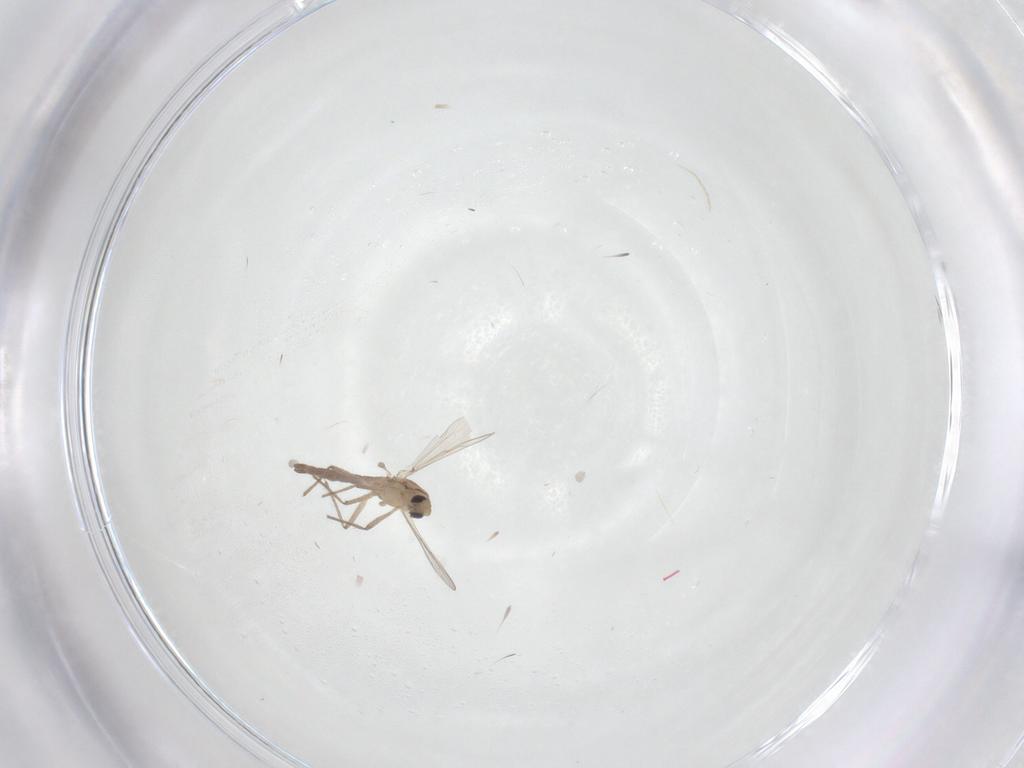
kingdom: Animalia
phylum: Arthropoda
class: Insecta
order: Diptera
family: Chironomidae
